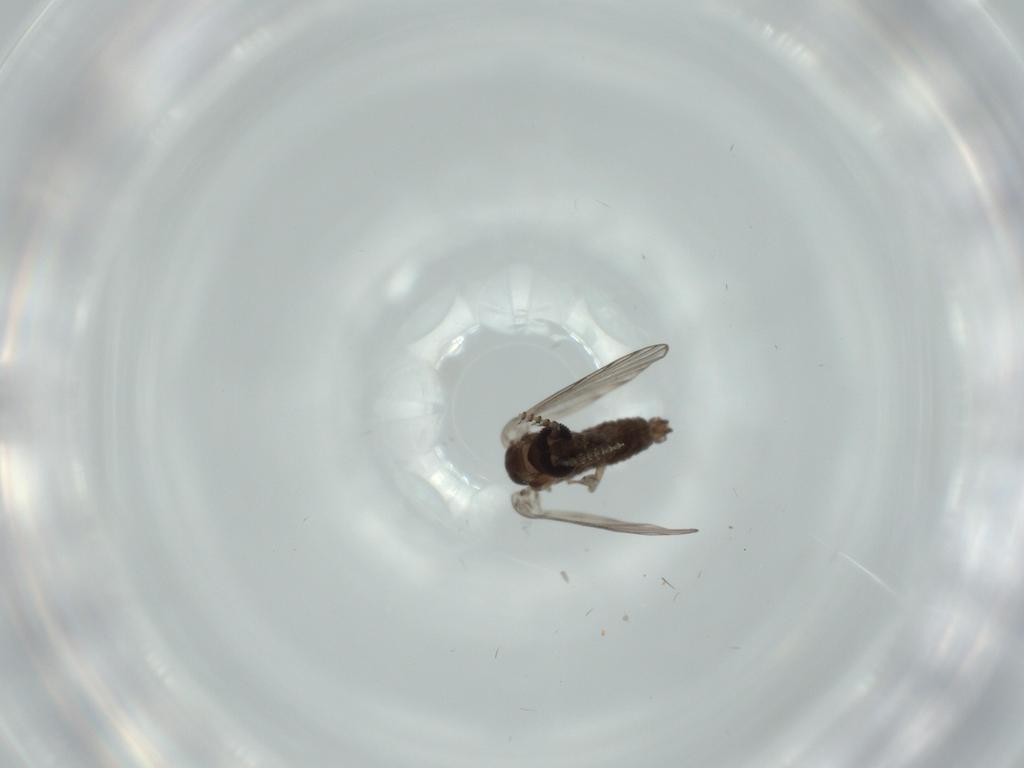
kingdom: Animalia
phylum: Arthropoda
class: Insecta
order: Diptera
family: Psychodidae
